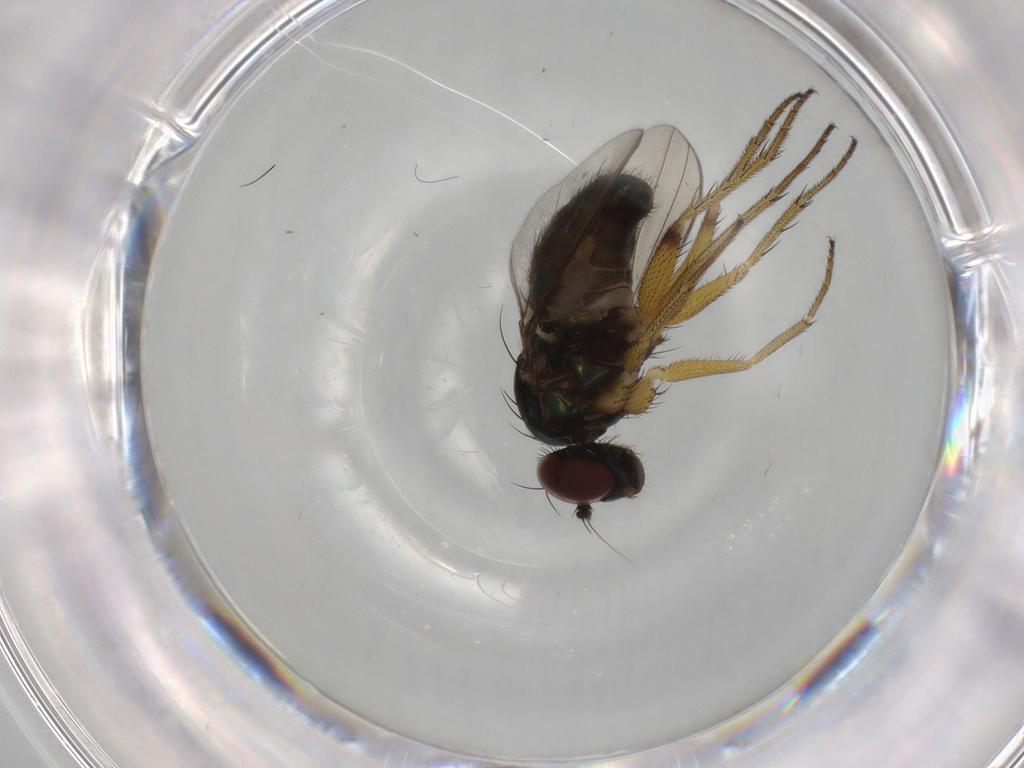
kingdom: Animalia
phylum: Arthropoda
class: Insecta
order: Diptera
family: Dolichopodidae
